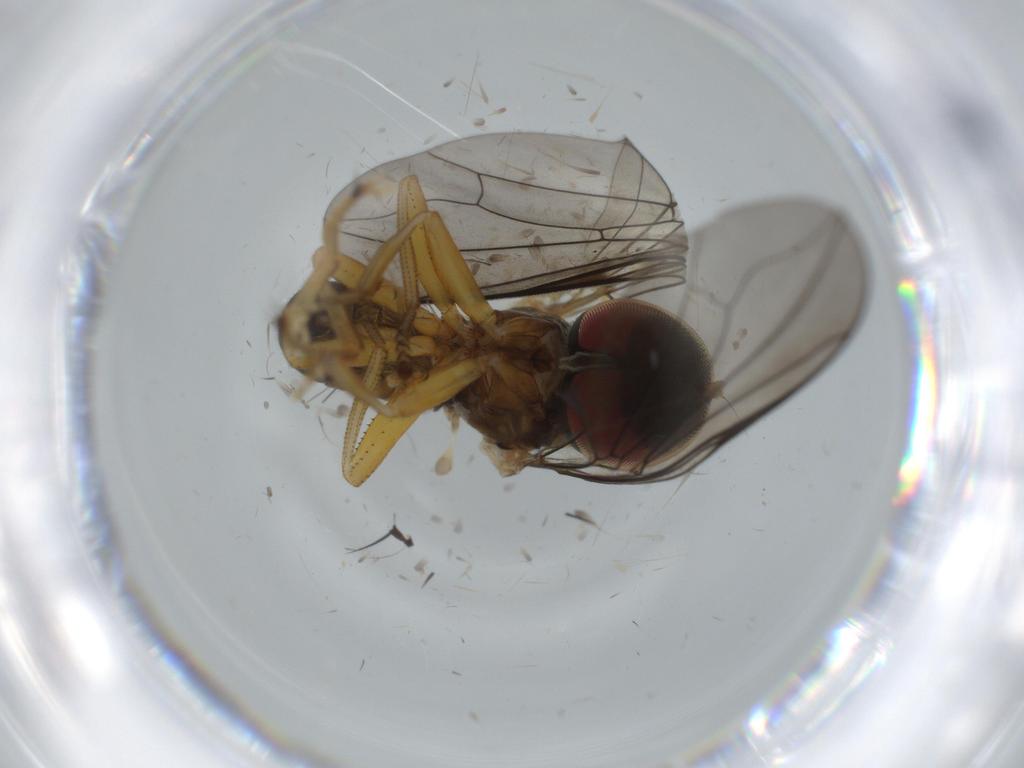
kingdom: Animalia
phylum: Arthropoda
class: Insecta
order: Diptera
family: Pipunculidae
